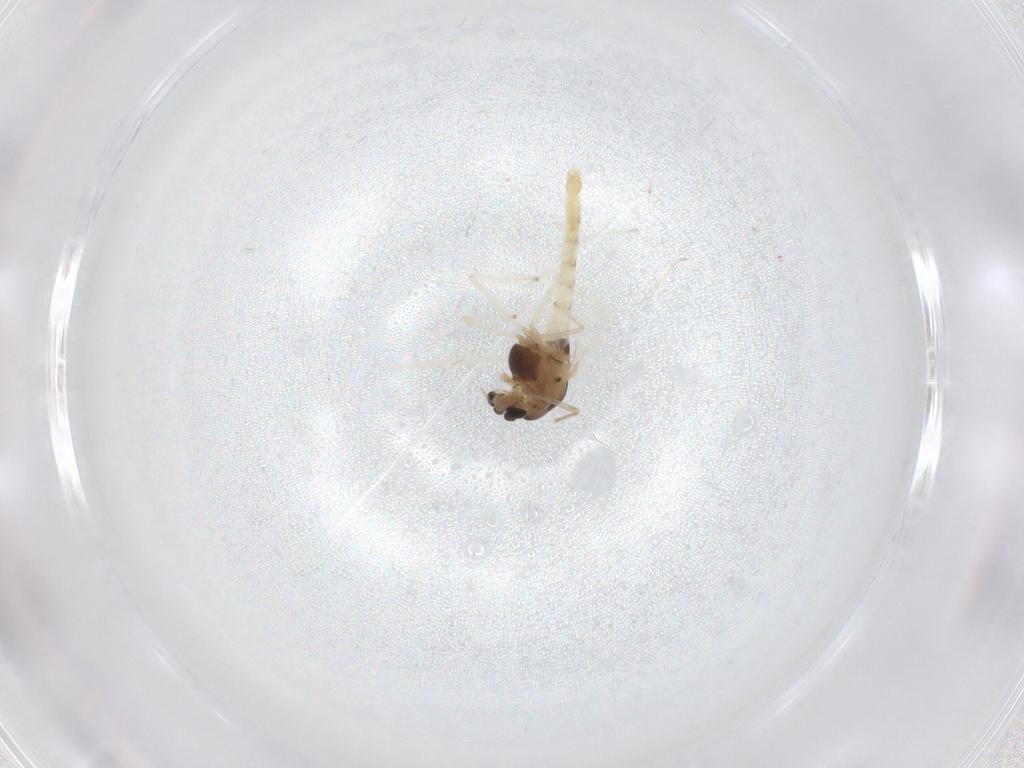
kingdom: Animalia
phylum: Arthropoda
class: Insecta
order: Diptera
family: Chironomidae
